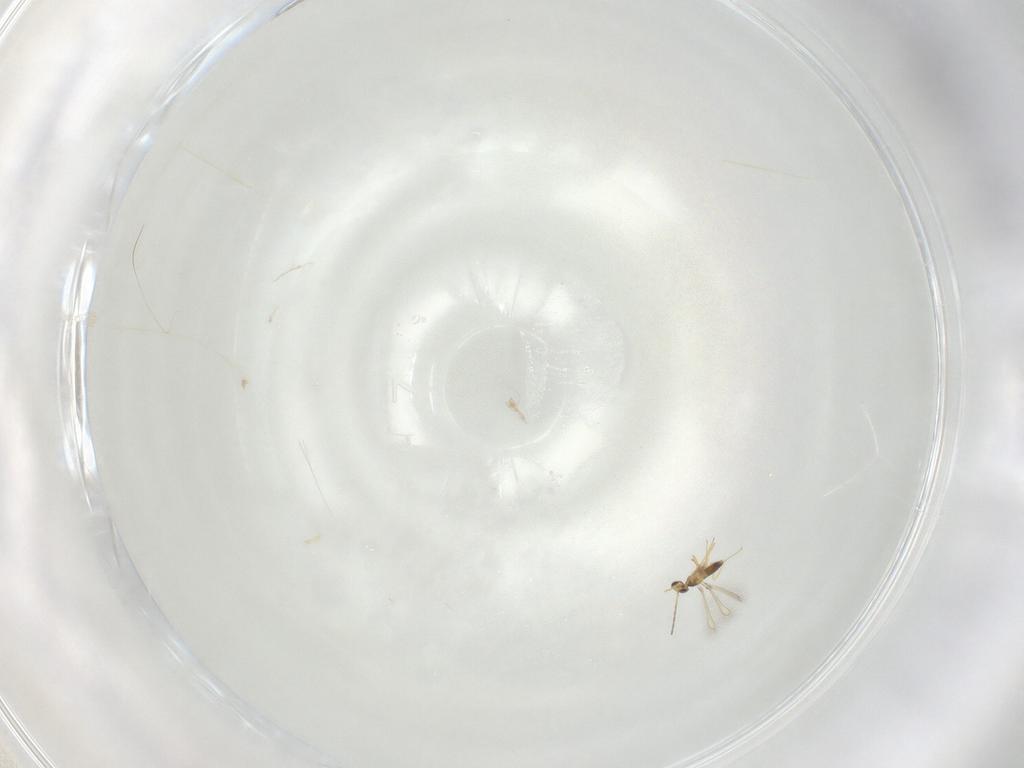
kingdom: Animalia
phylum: Arthropoda
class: Insecta
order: Hymenoptera
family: Mymaridae
